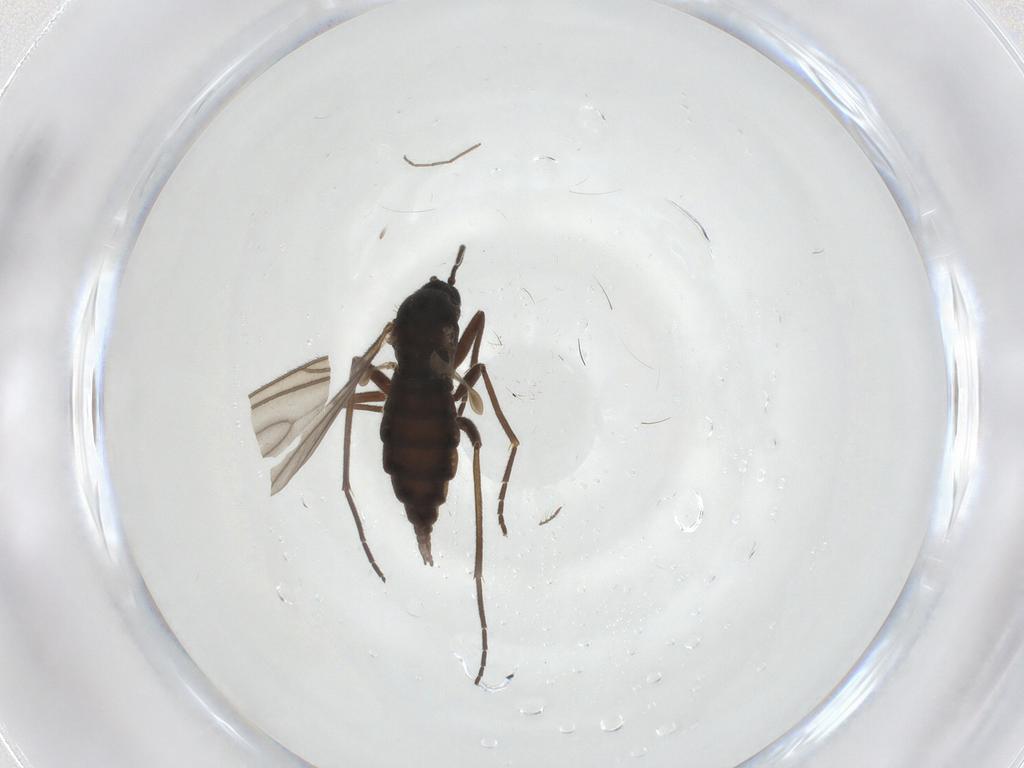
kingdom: Animalia
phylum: Arthropoda
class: Insecta
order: Diptera
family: Sciaridae
